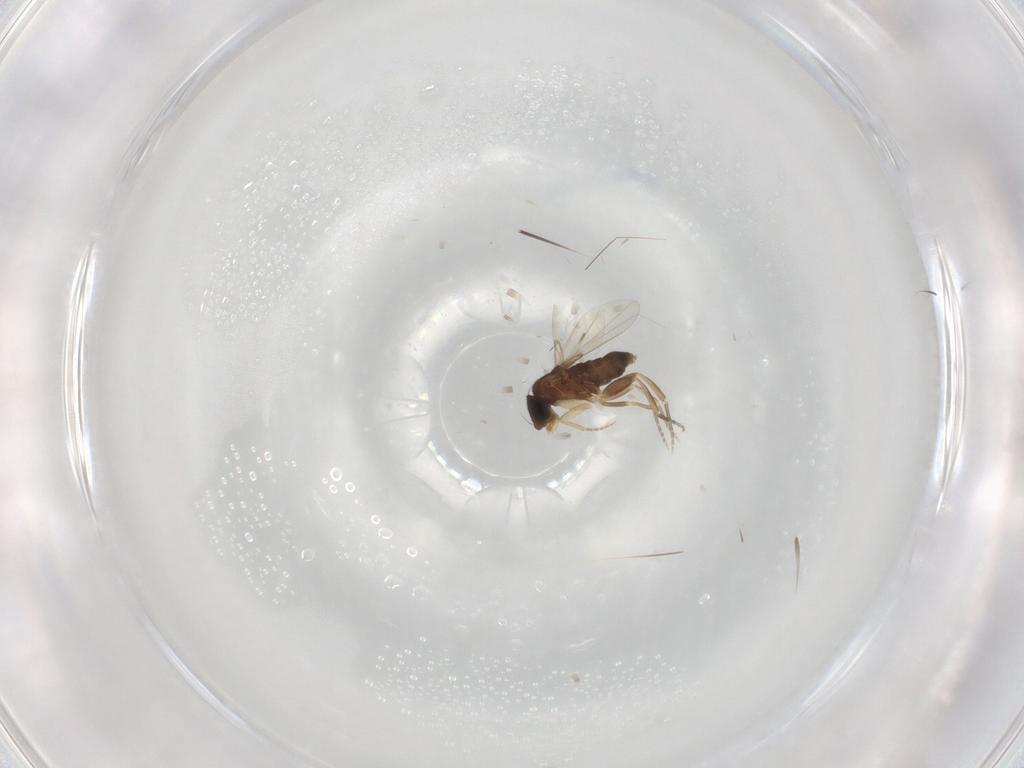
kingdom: Animalia
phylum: Arthropoda
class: Insecta
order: Diptera
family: Phoridae
